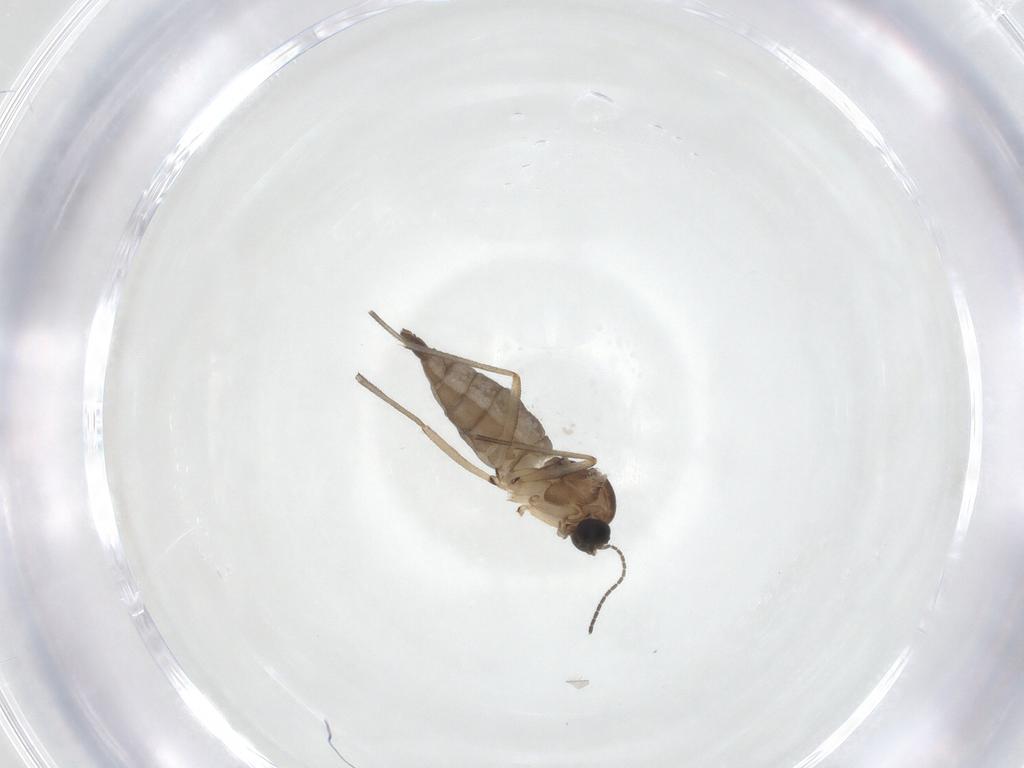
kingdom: Animalia
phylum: Arthropoda
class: Insecta
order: Diptera
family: Sciaridae
